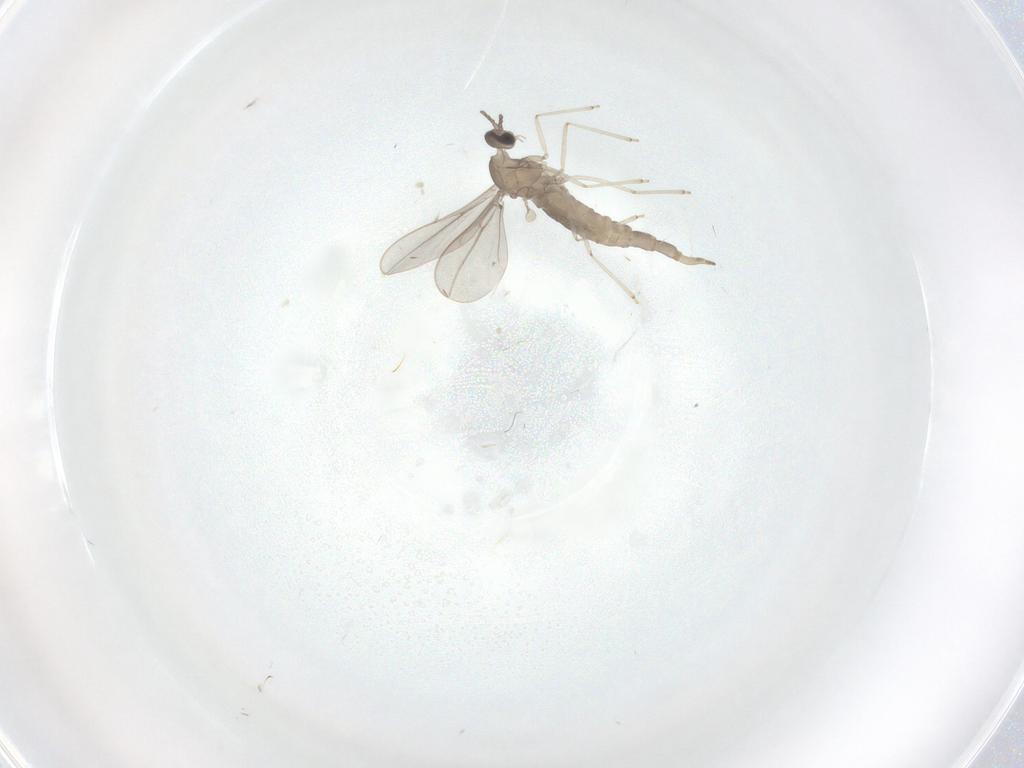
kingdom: Animalia
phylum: Arthropoda
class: Insecta
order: Diptera
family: Cecidomyiidae
